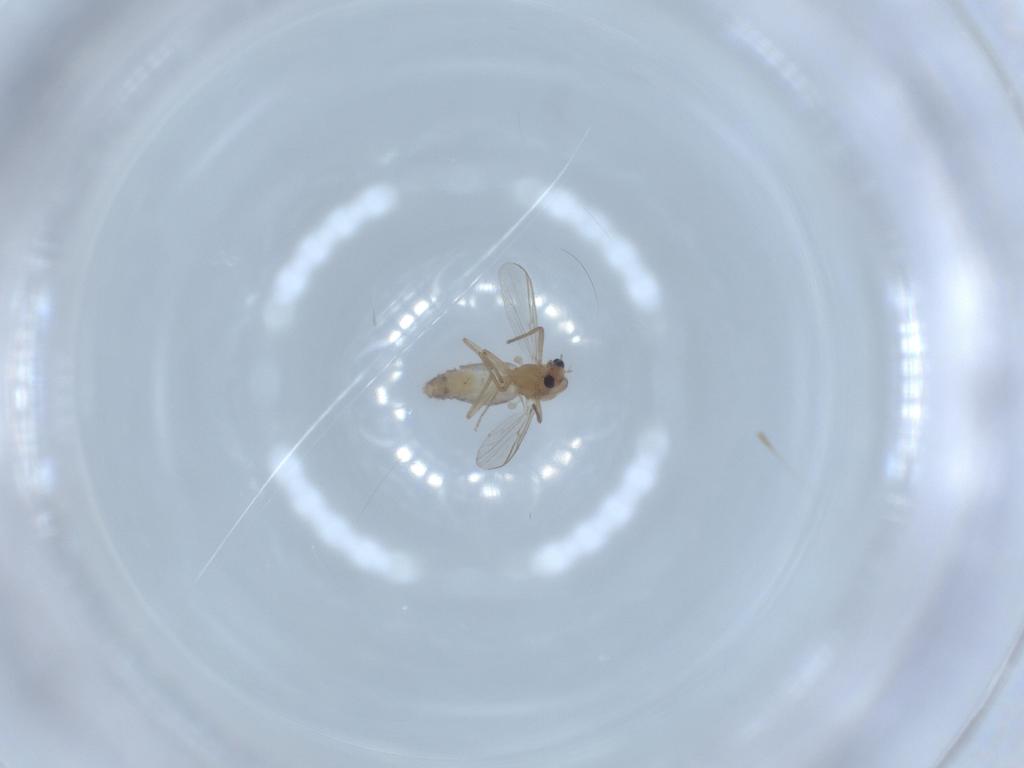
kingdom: Animalia
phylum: Arthropoda
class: Insecta
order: Diptera
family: Chironomidae
